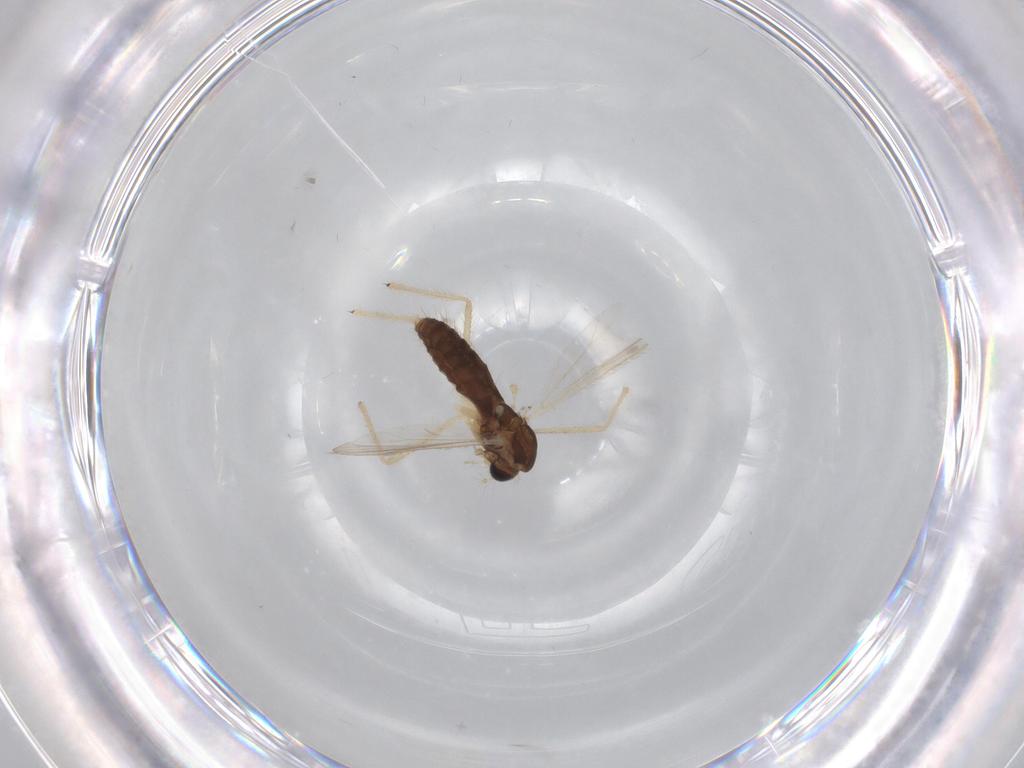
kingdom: Animalia
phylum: Arthropoda
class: Insecta
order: Diptera
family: Chironomidae
